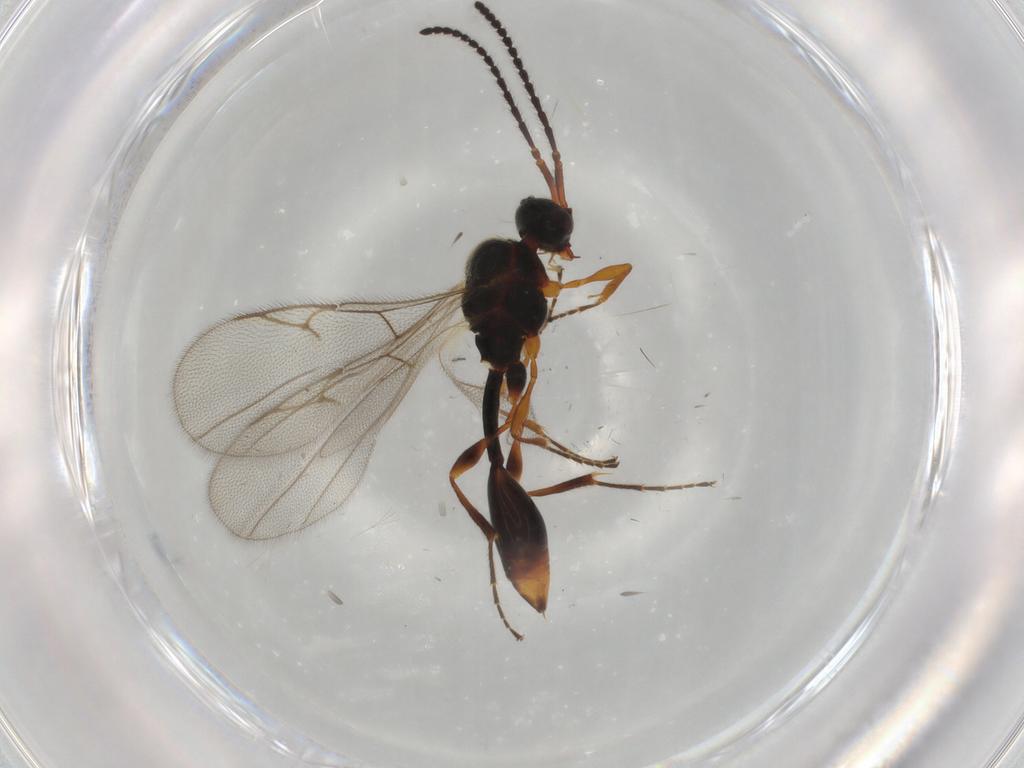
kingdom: Animalia
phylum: Arthropoda
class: Insecta
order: Hymenoptera
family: Diapriidae
